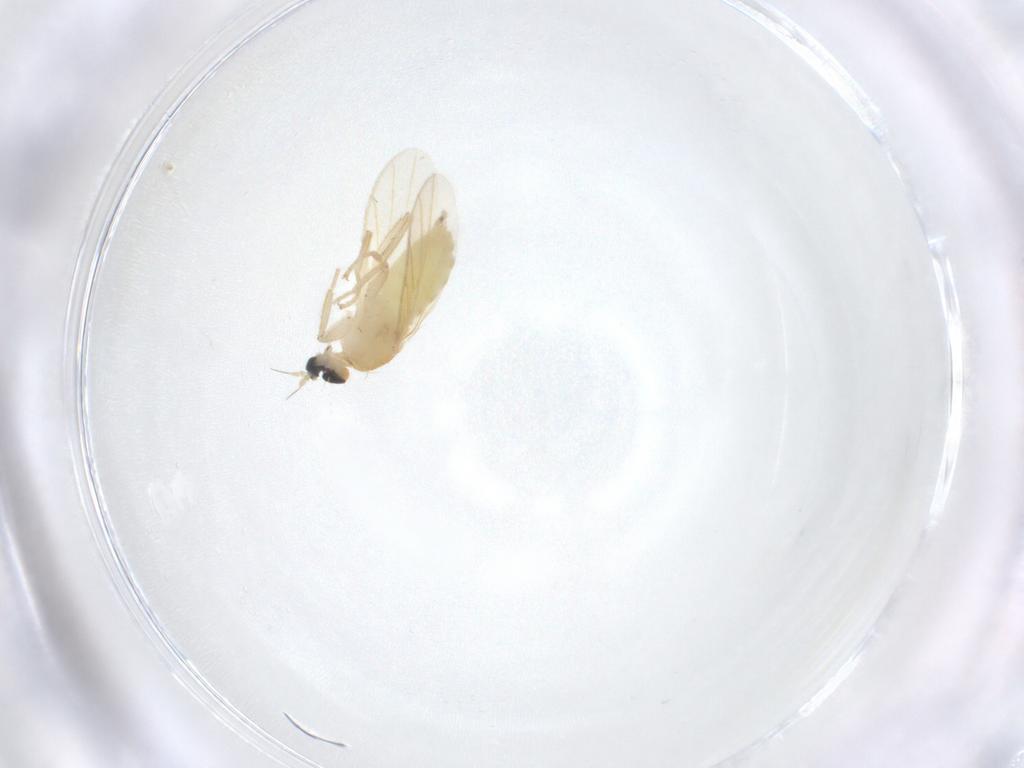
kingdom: Animalia
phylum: Arthropoda
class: Insecta
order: Diptera
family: Hybotidae
